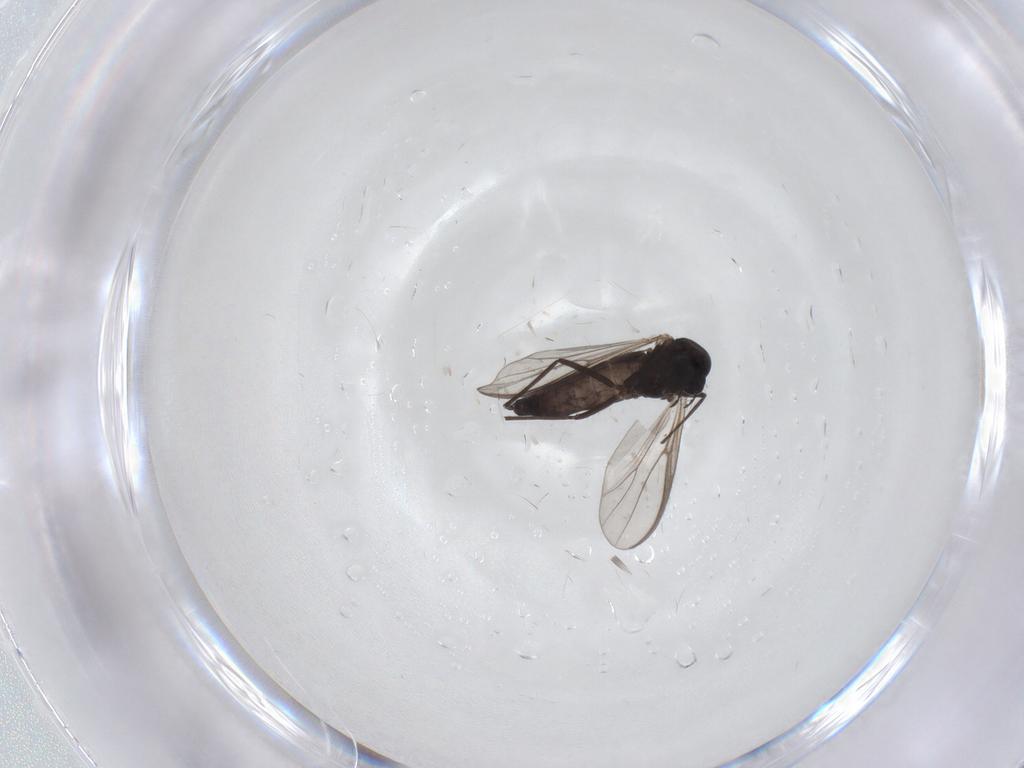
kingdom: Animalia
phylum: Arthropoda
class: Insecta
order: Diptera
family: Chironomidae
